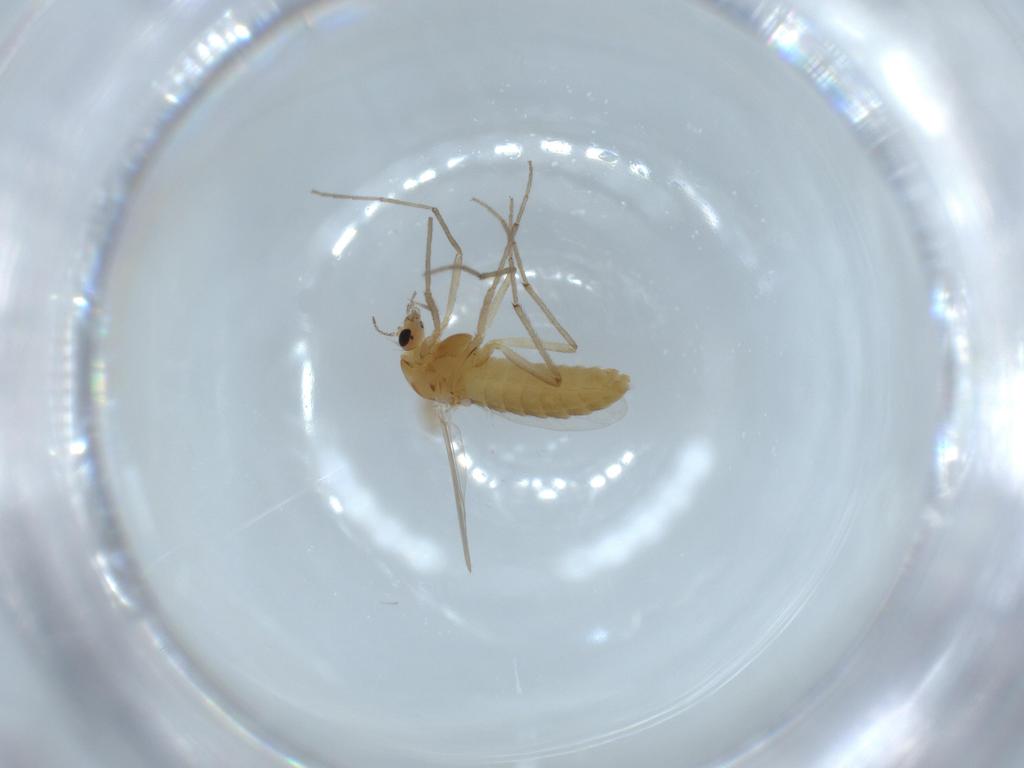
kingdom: Animalia
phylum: Arthropoda
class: Insecta
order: Diptera
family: Chironomidae
